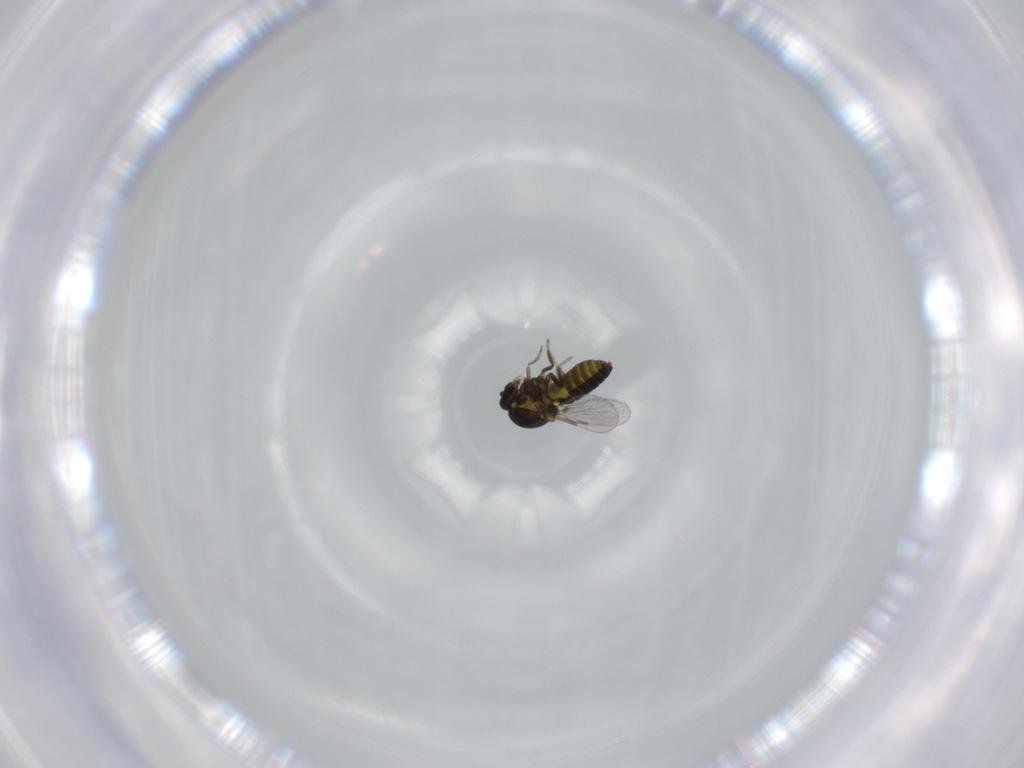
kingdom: Animalia
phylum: Arthropoda
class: Insecta
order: Diptera
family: Ceratopogonidae
